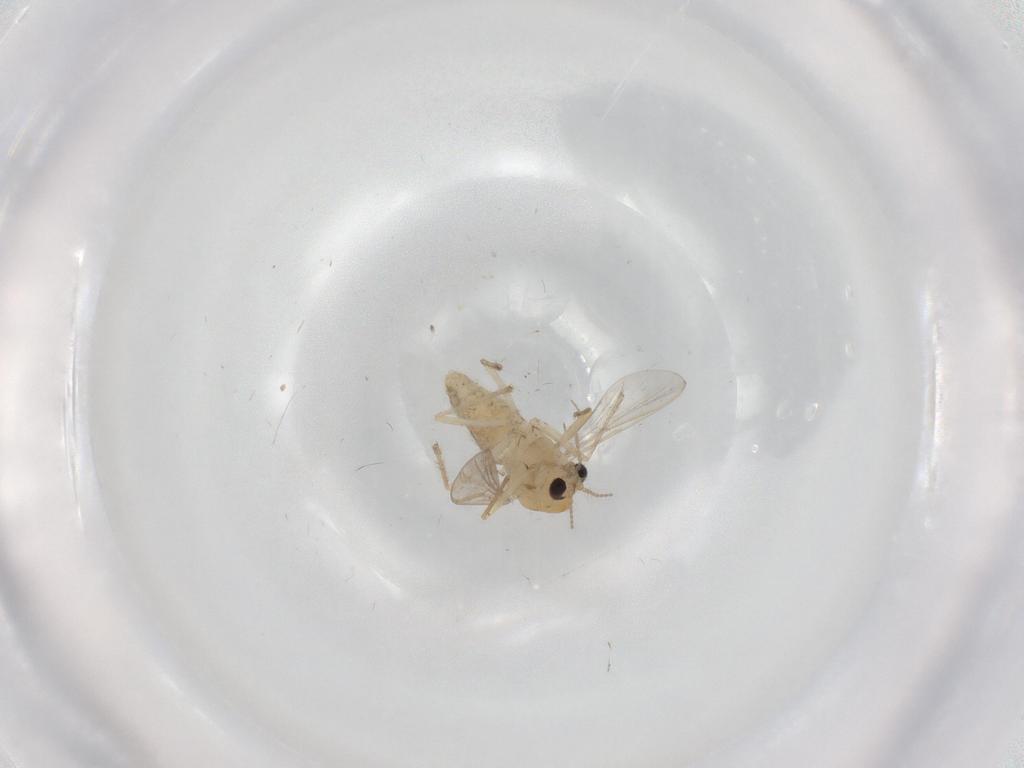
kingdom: Animalia
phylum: Arthropoda
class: Insecta
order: Diptera
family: Chironomidae
